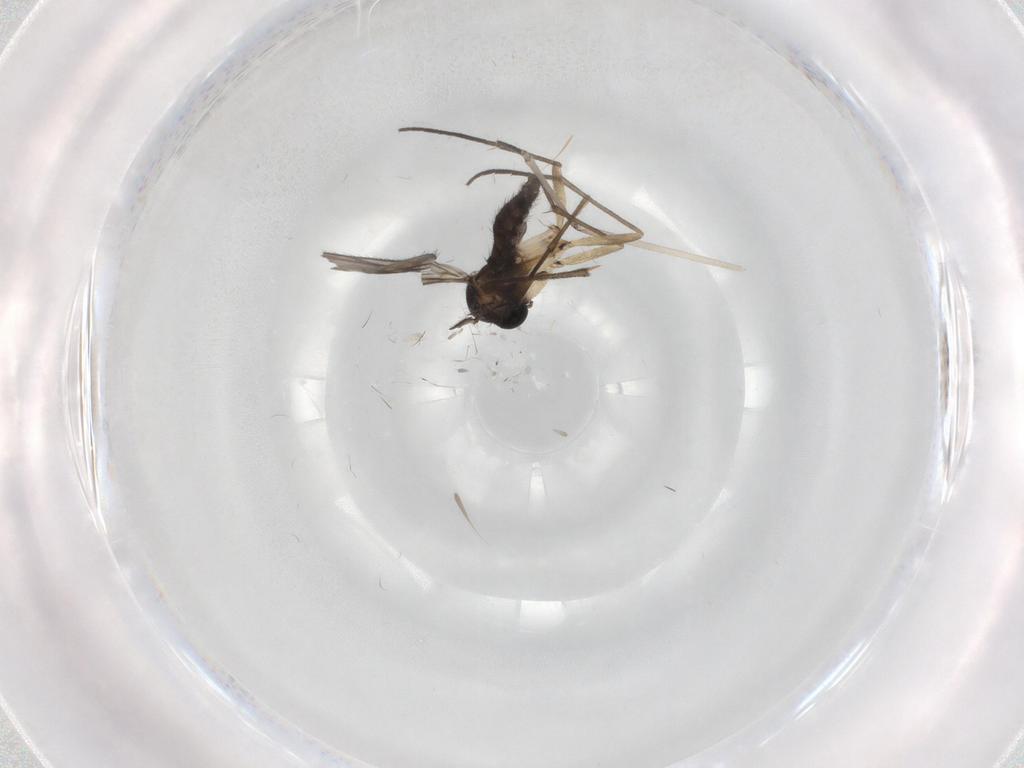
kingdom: Animalia
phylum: Arthropoda
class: Insecta
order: Diptera
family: Sciaridae
